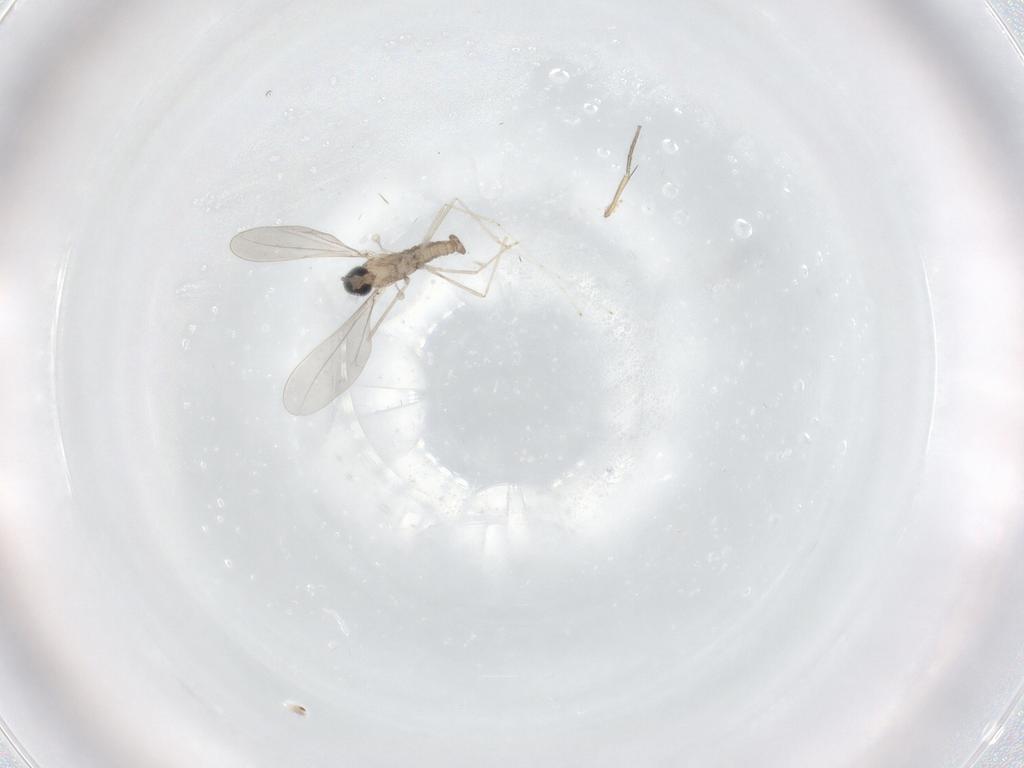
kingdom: Animalia
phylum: Arthropoda
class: Insecta
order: Diptera
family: Cecidomyiidae
